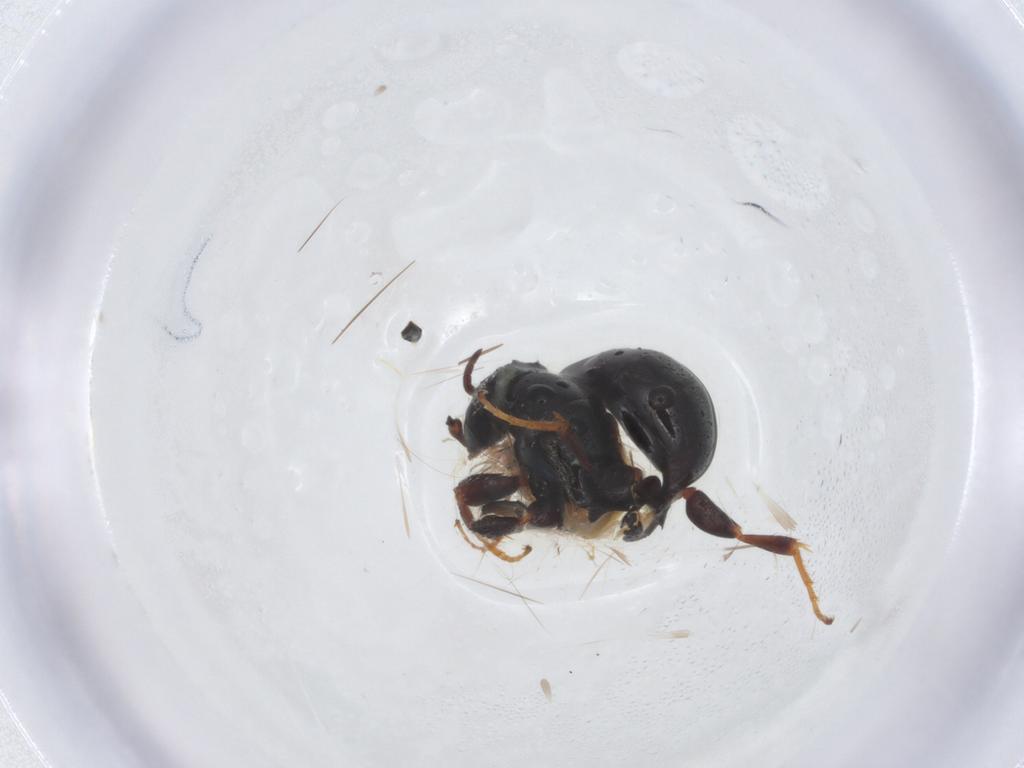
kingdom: Animalia
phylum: Arthropoda
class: Insecta
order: Hymenoptera
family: Bethylidae
